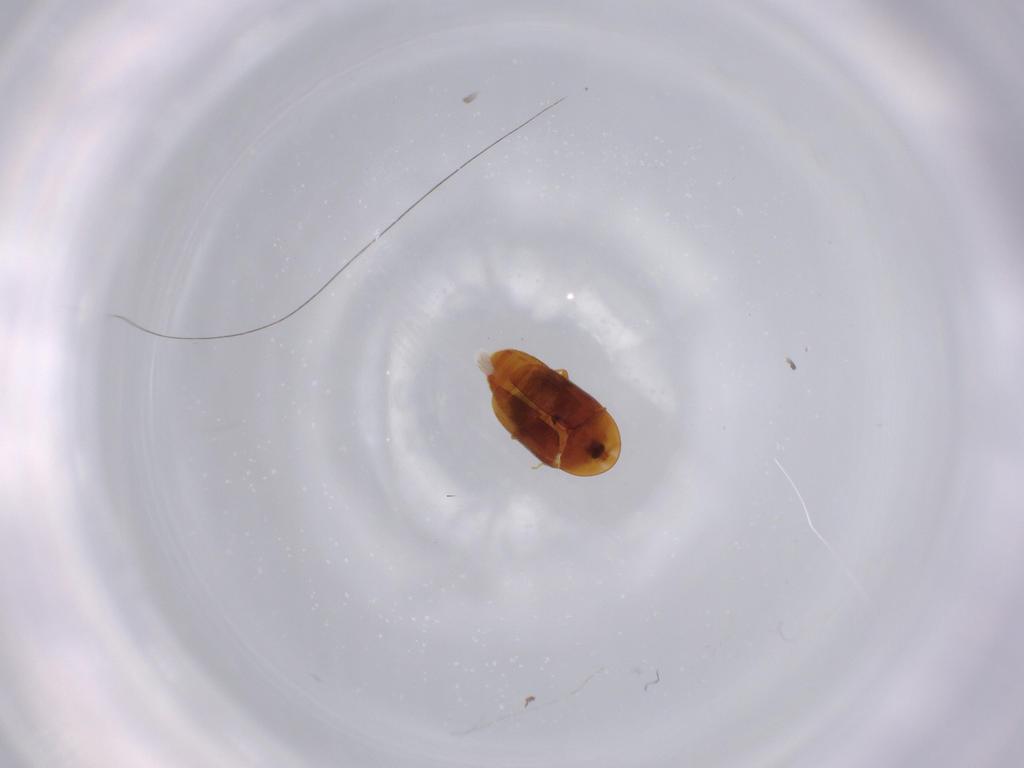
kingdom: Animalia
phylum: Arthropoda
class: Insecta
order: Coleoptera
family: Corylophidae
